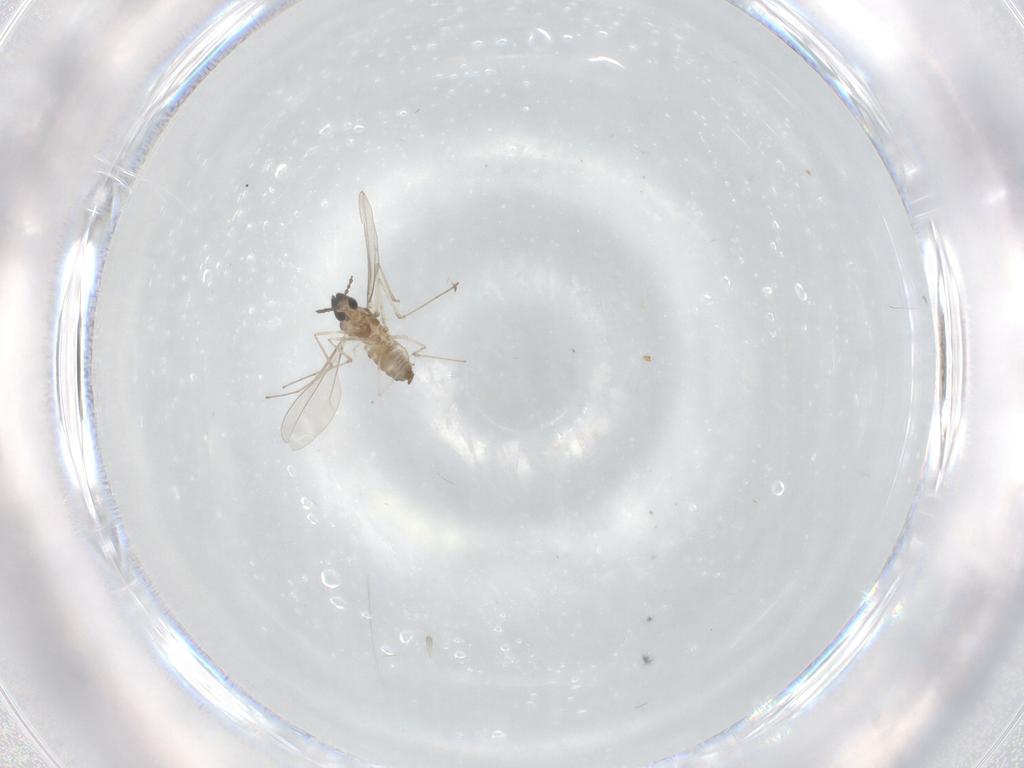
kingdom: Animalia
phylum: Arthropoda
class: Insecta
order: Diptera
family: Cecidomyiidae
